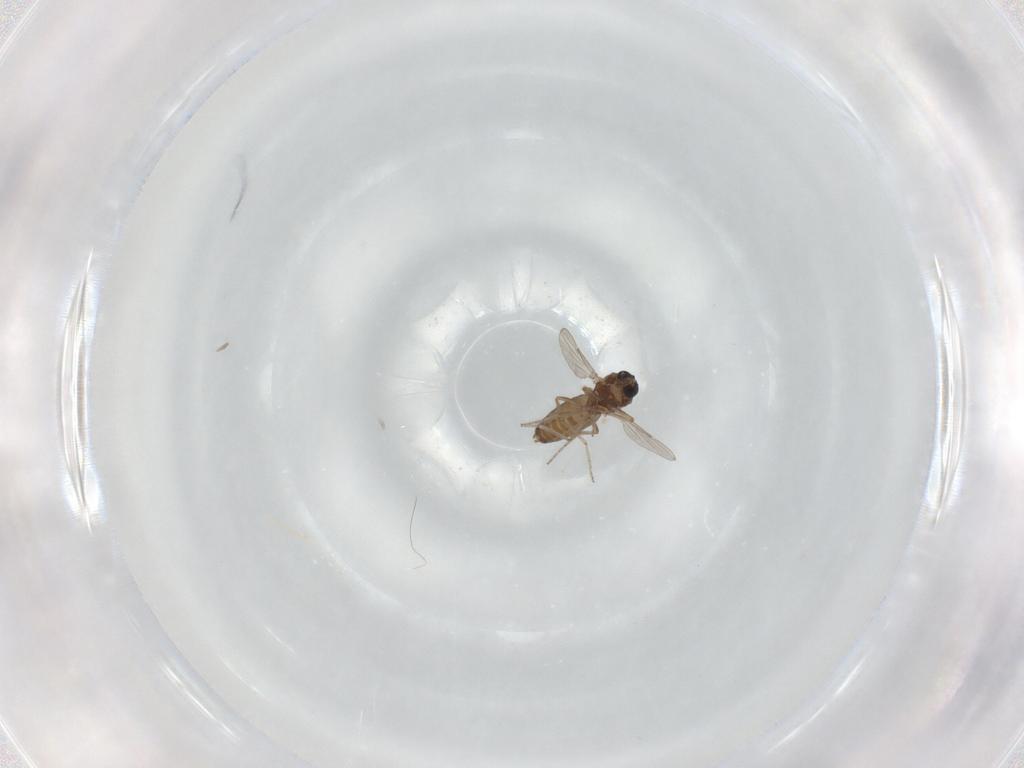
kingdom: Animalia
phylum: Arthropoda
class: Insecta
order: Diptera
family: Ceratopogonidae
